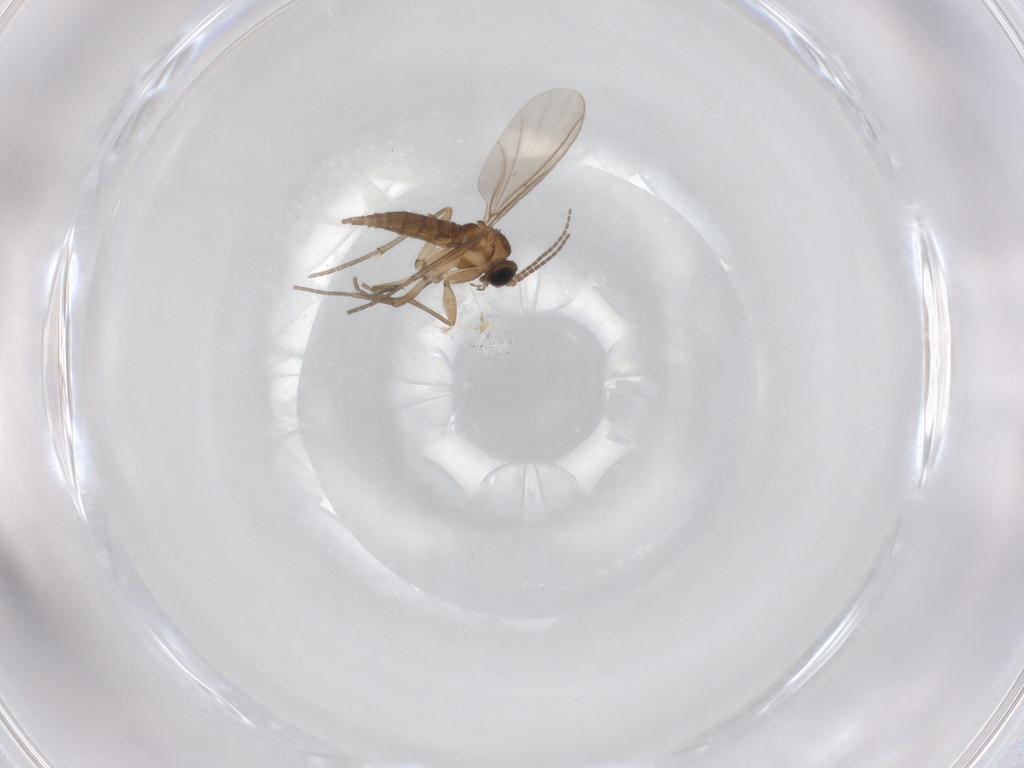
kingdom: Animalia
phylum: Arthropoda
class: Insecta
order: Diptera
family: Sciaridae
